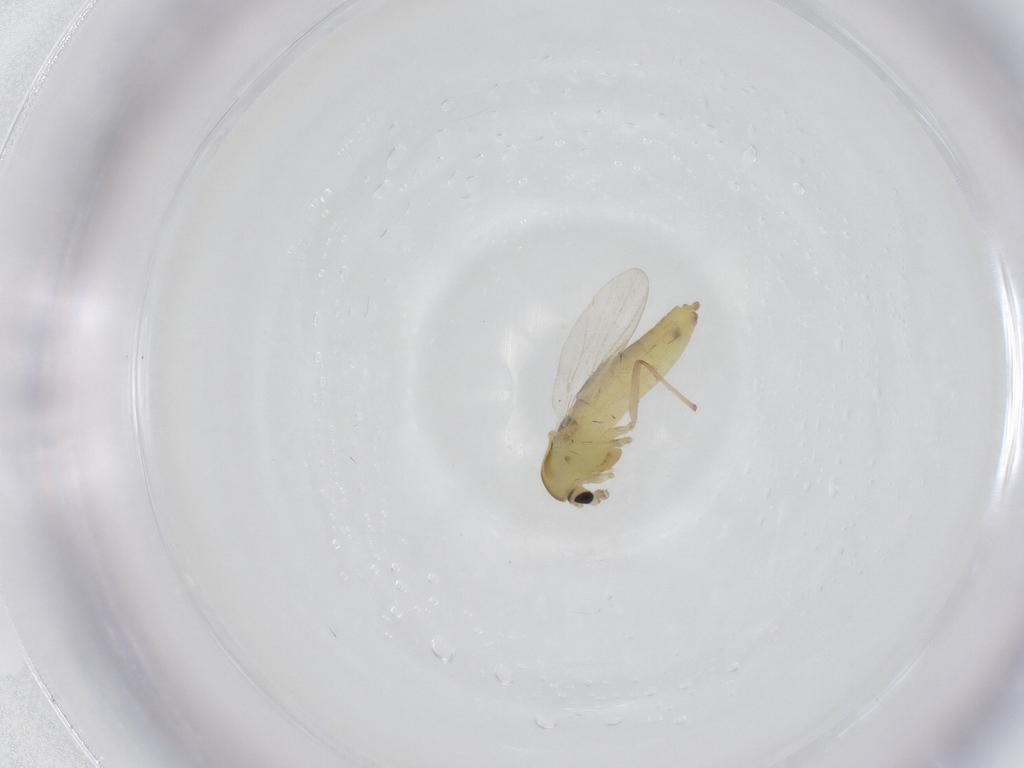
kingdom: Animalia
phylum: Arthropoda
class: Insecta
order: Diptera
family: Chironomidae
